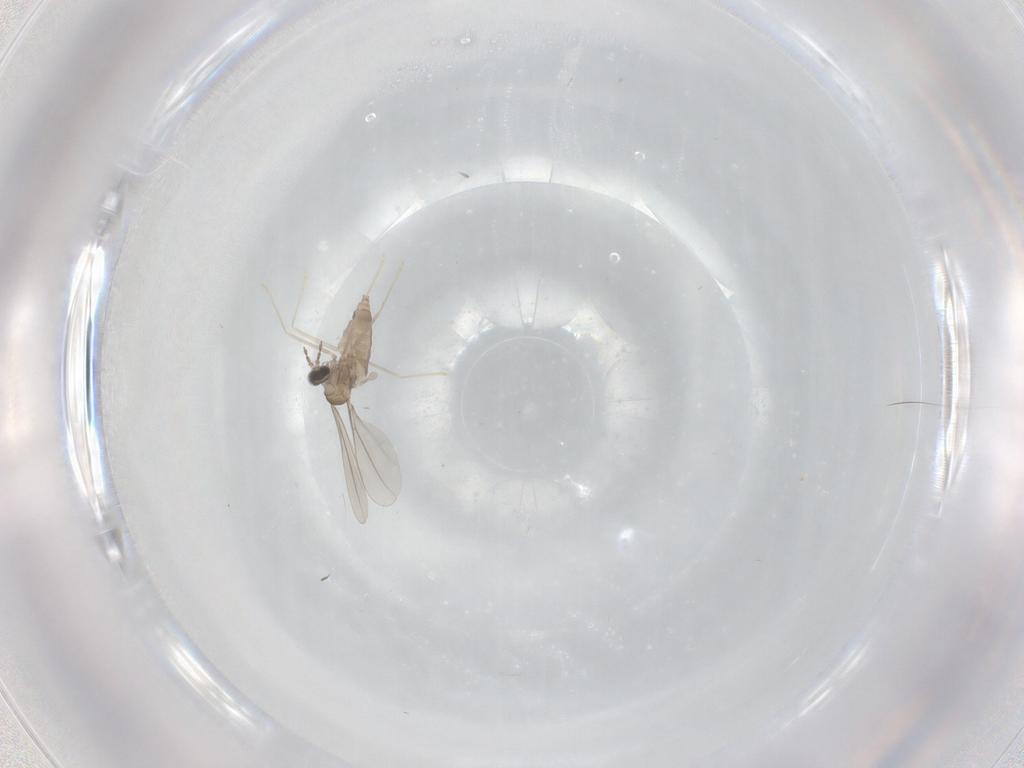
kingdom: Animalia
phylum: Arthropoda
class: Insecta
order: Diptera
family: Cecidomyiidae
